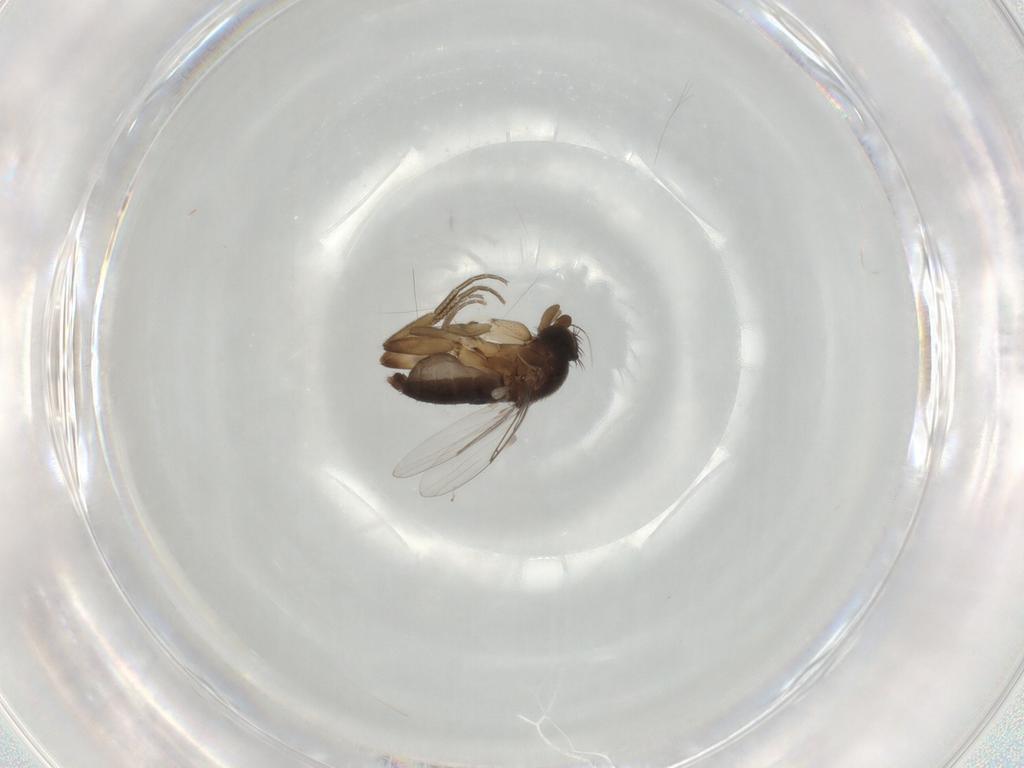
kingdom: Animalia
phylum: Arthropoda
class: Insecta
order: Diptera
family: Phoridae
